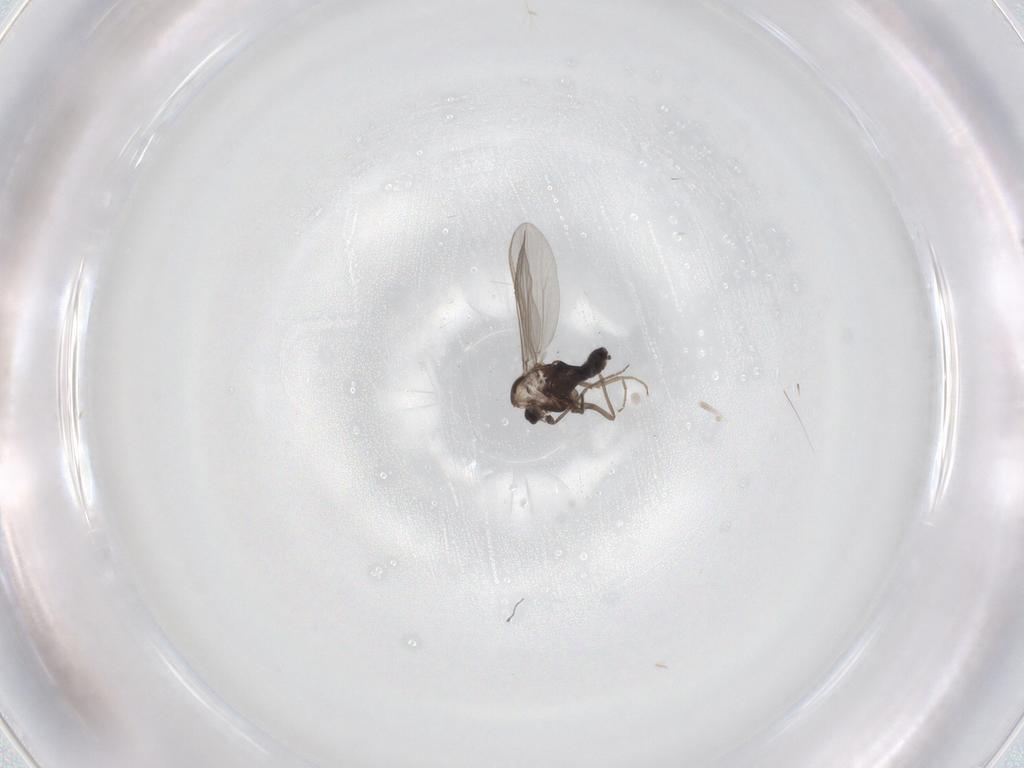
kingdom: Animalia
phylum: Arthropoda
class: Insecta
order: Diptera
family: Chironomidae
